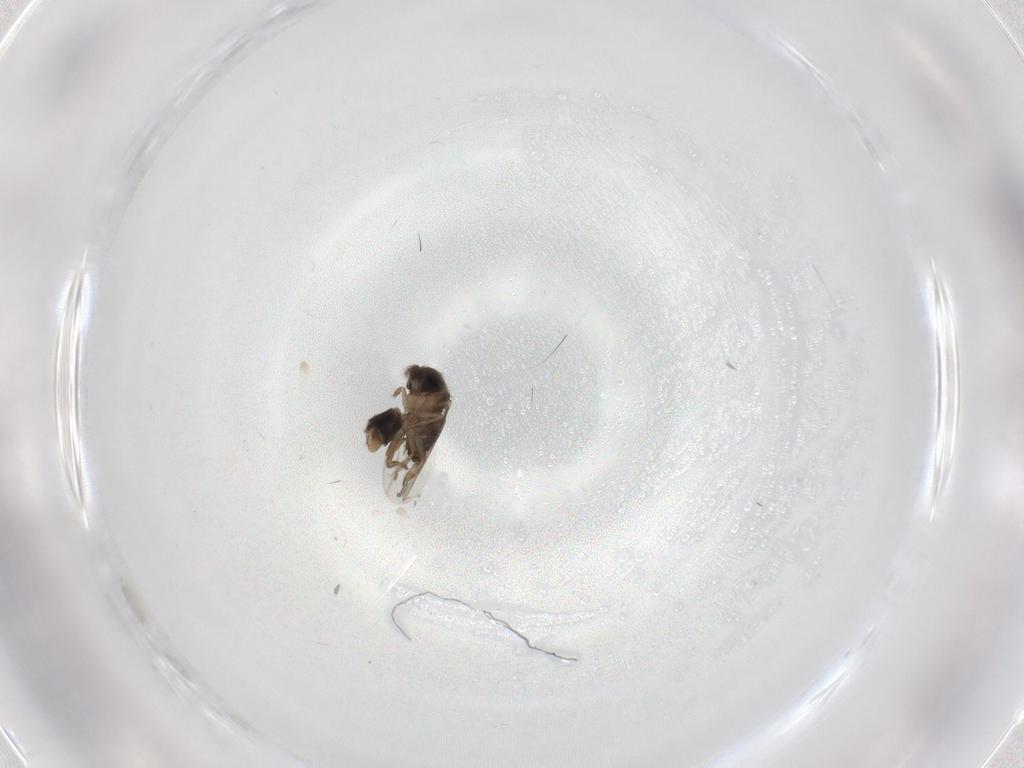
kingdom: Animalia
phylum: Arthropoda
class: Insecta
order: Diptera
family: Phoridae
